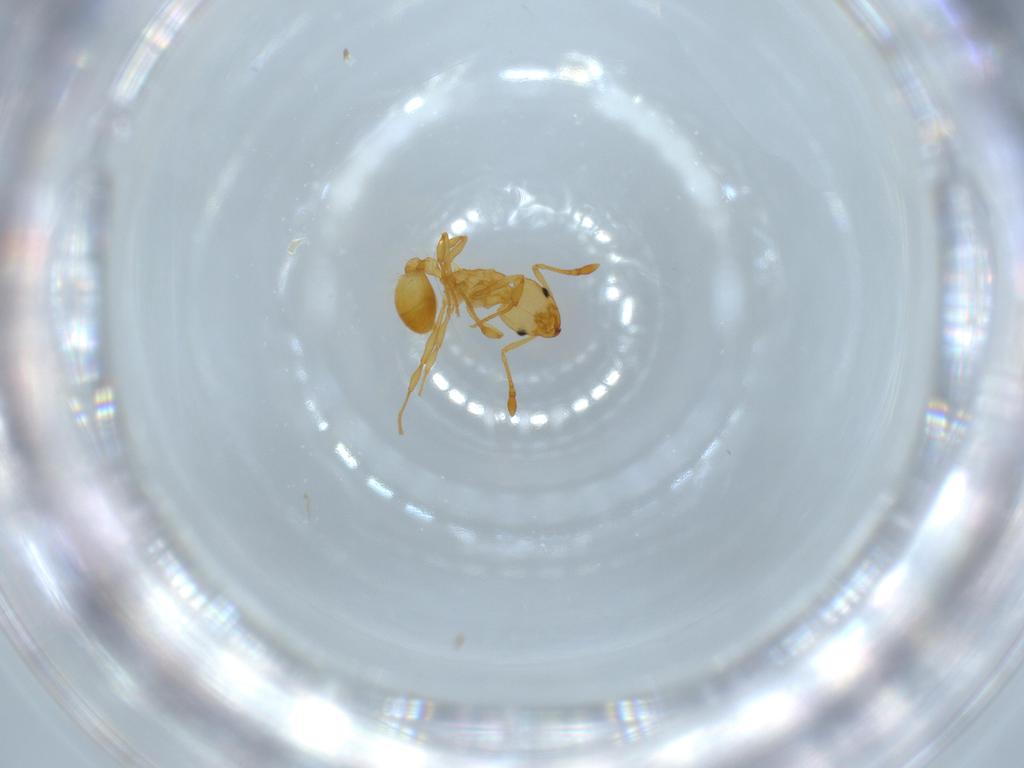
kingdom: Animalia
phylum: Arthropoda
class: Insecta
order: Hymenoptera
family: Formicidae
